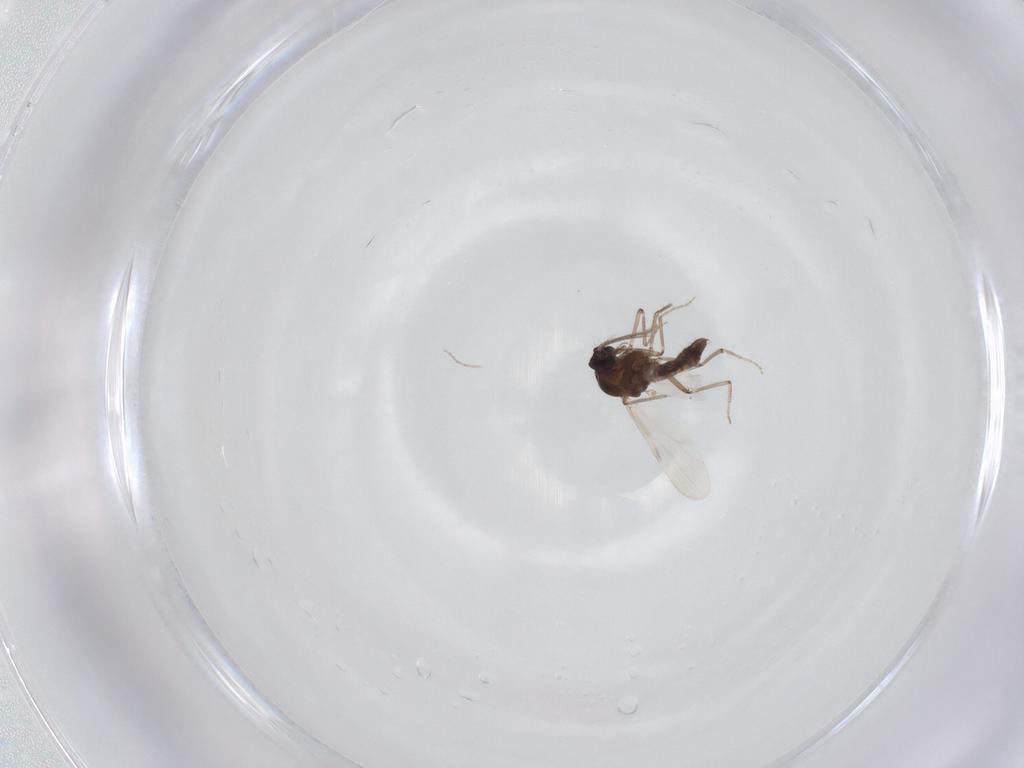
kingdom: Animalia
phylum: Arthropoda
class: Insecta
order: Diptera
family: Ceratopogonidae
